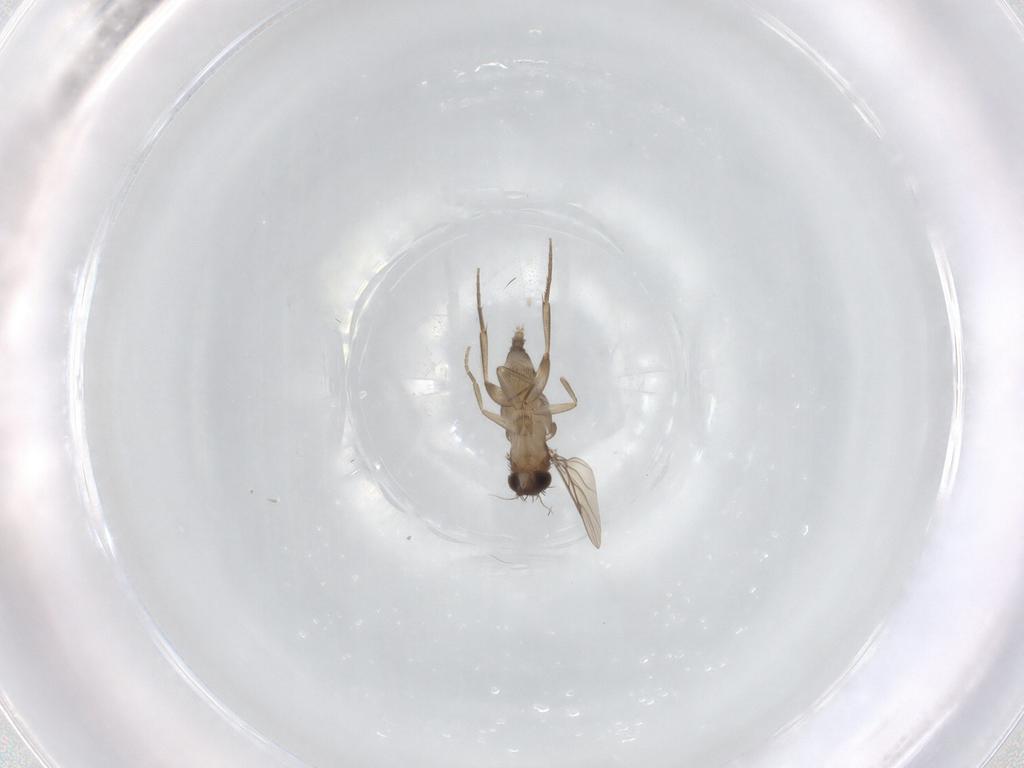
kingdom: Animalia
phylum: Arthropoda
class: Insecta
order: Diptera
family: Phoridae
